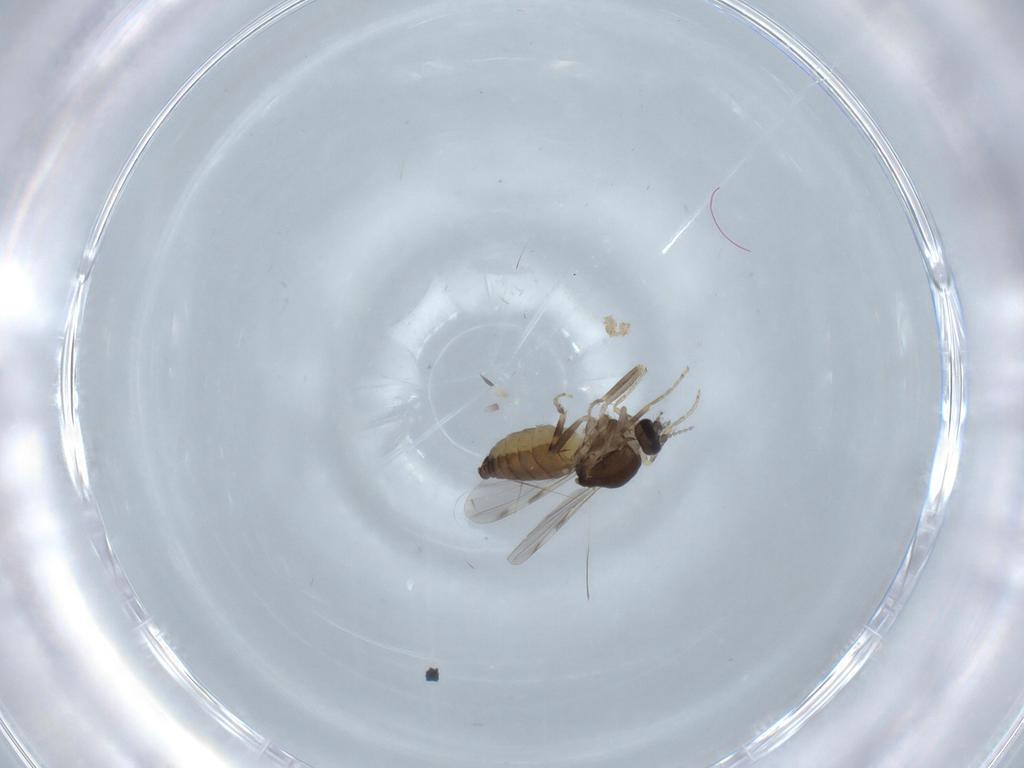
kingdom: Animalia
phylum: Arthropoda
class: Insecta
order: Diptera
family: Ceratopogonidae
